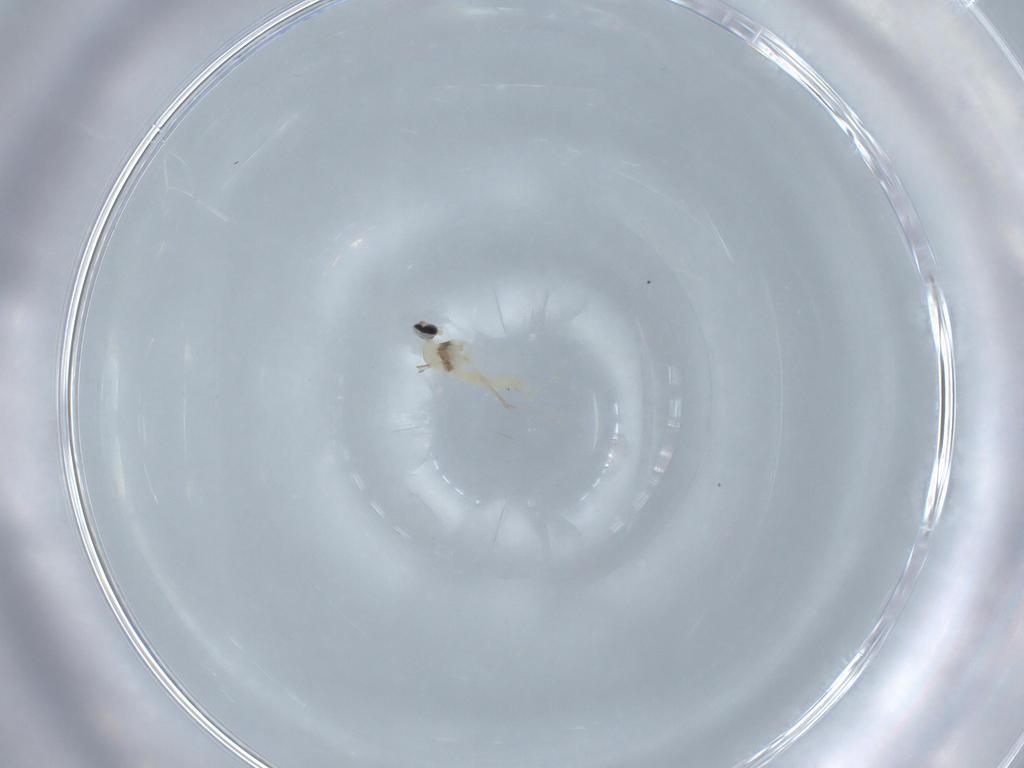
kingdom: Animalia
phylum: Arthropoda
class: Insecta
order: Diptera
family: Cecidomyiidae
